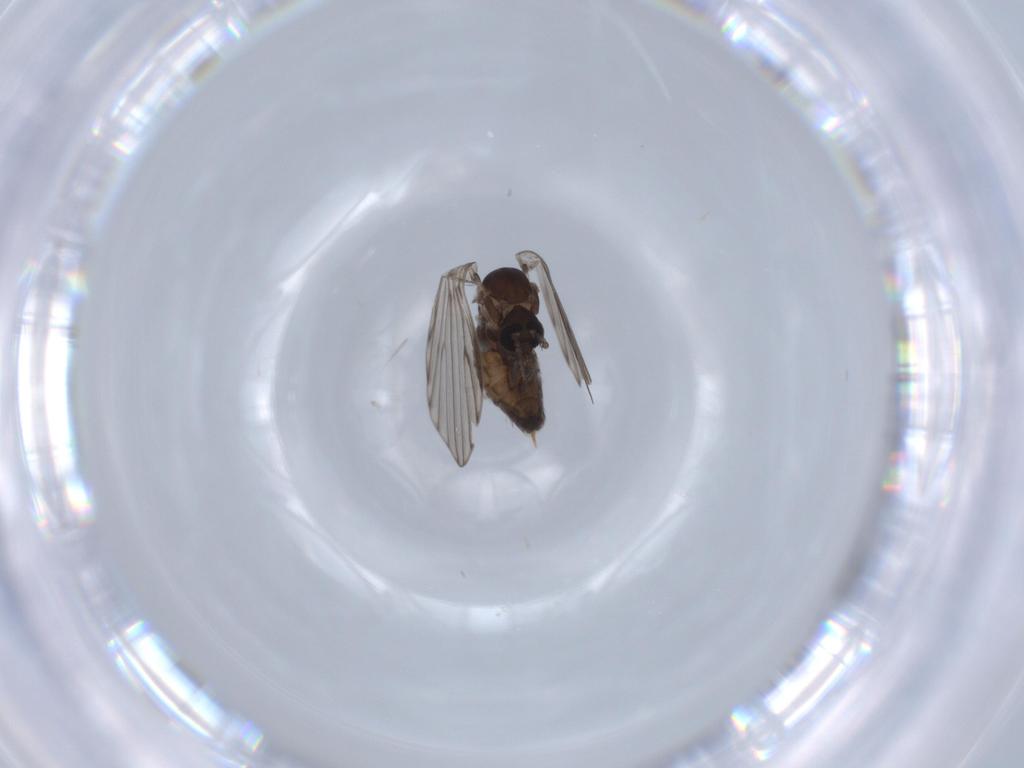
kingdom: Animalia
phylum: Arthropoda
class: Insecta
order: Diptera
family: Psychodidae
